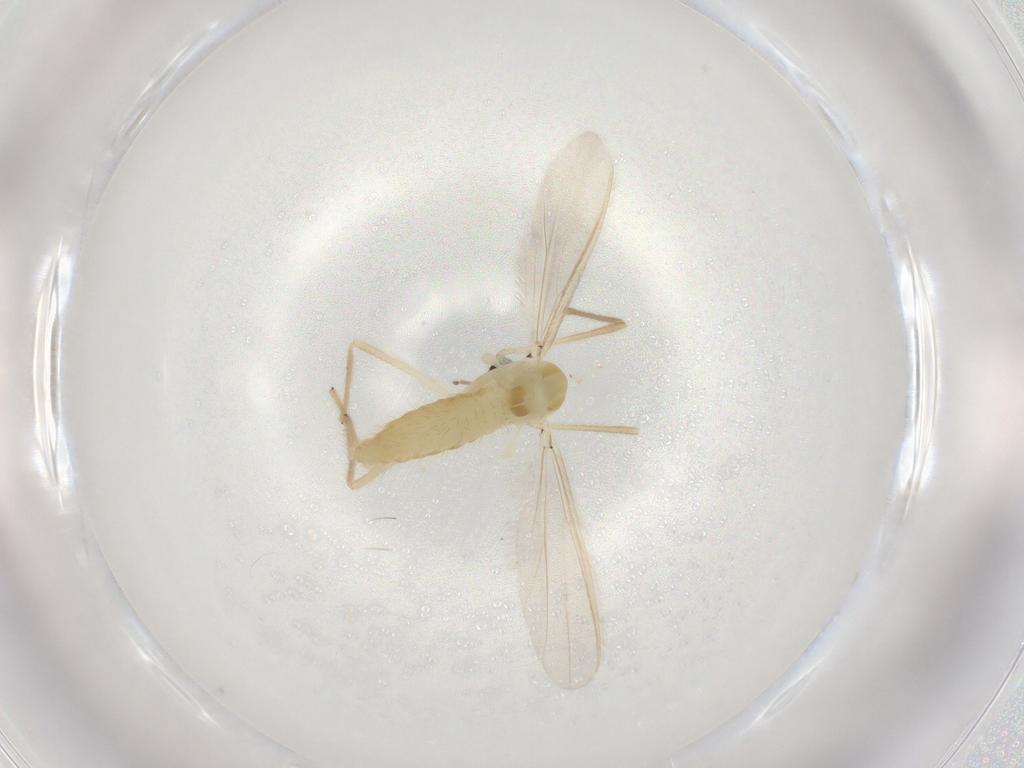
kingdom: Animalia
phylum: Arthropoda
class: Insecta
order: Diptera
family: Chironomidae
